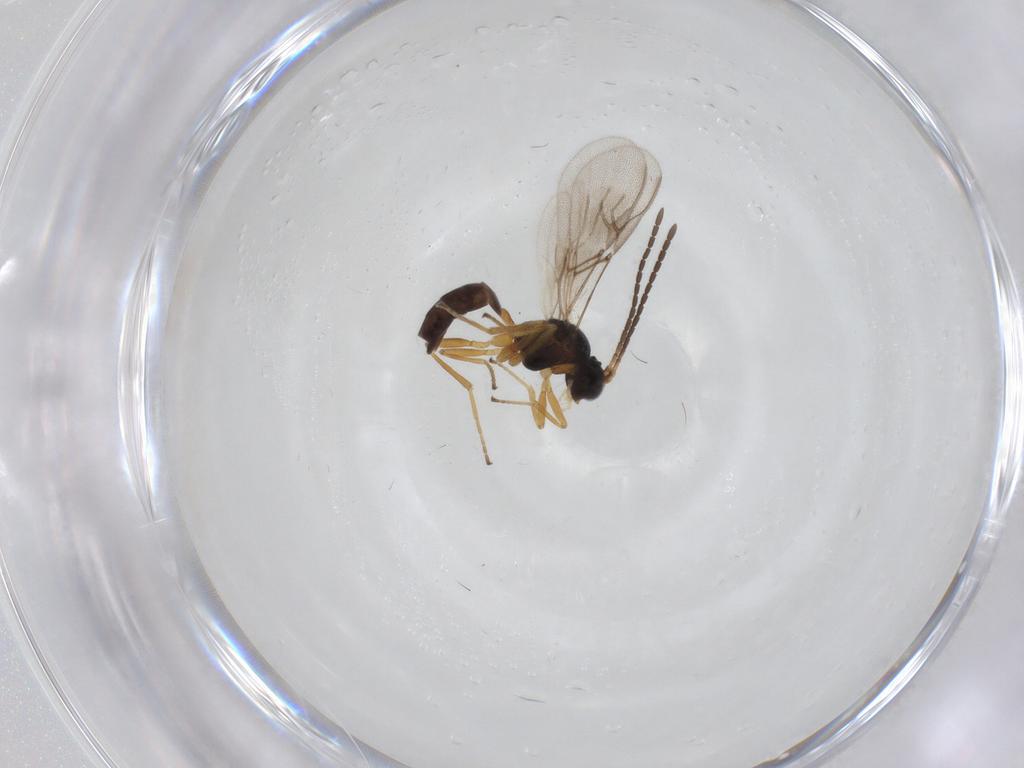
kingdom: Animalia
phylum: Arthropoda
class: Insecta
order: Hymenoptera
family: Braconidae
